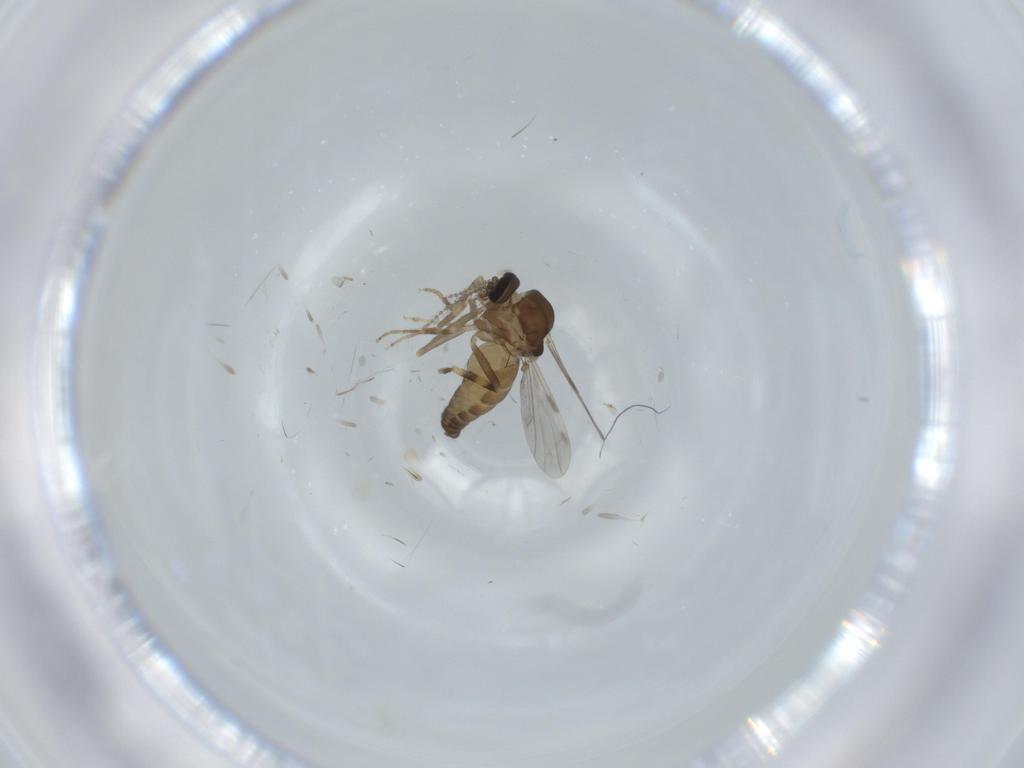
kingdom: Animalia
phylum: Arthropoda
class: Insecta
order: Diptera
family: Ceratopogonidae
